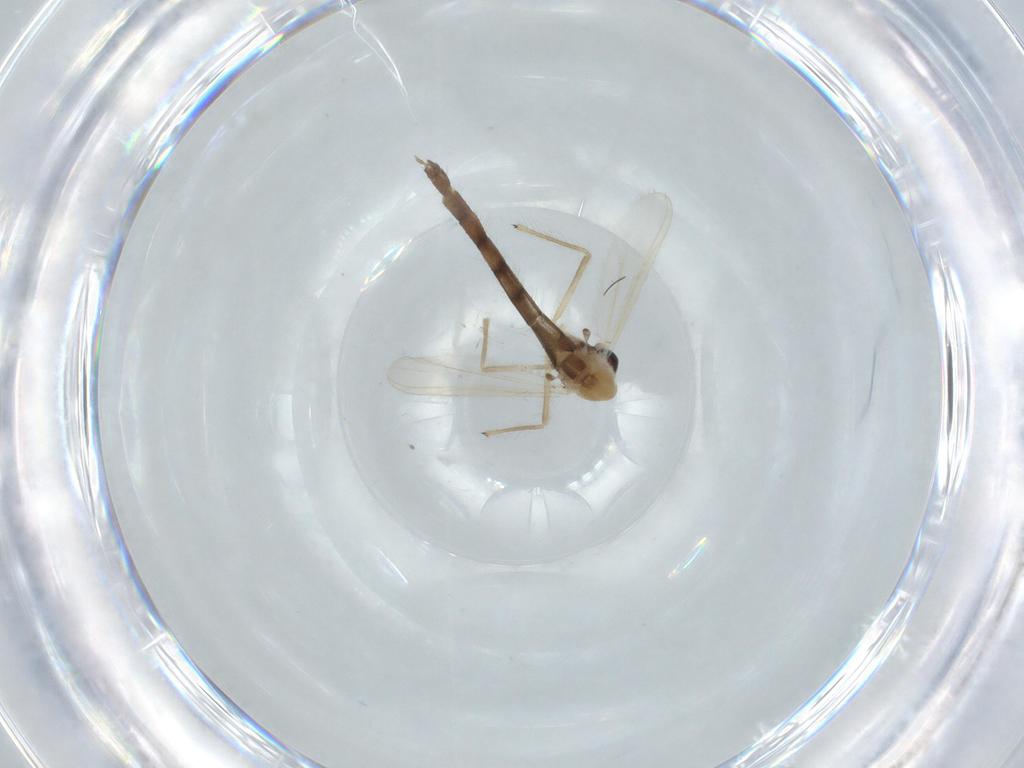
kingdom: Animalia
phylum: Arthropoda
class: Insecta
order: Diptera
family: Chironomidae
